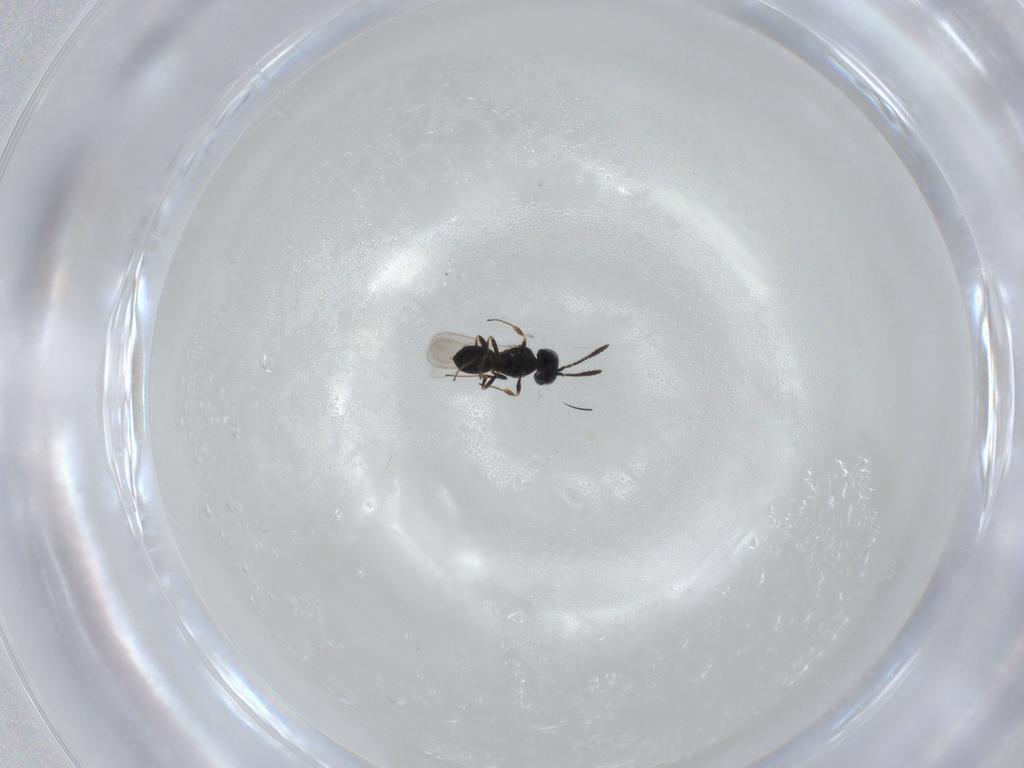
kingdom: Animalia
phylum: Arthropoda
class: Insecta
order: Hymenoptera
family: Scelionidae
